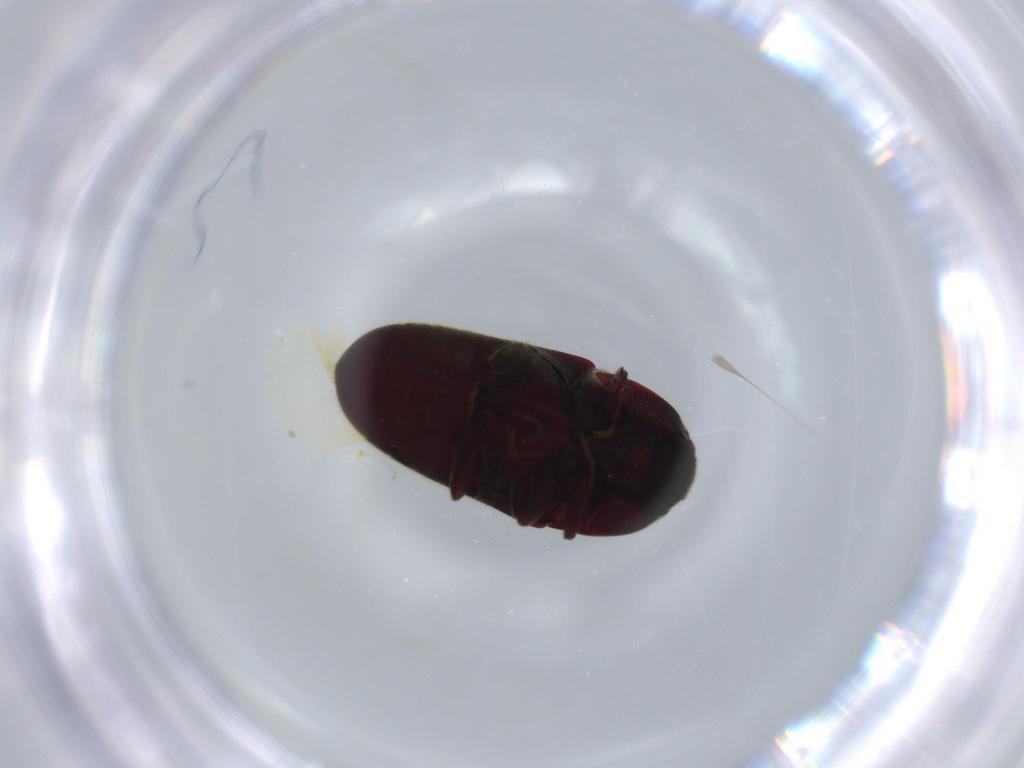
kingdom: Animalia
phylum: Arthropoda
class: Insecta
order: Coleoptera
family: Throscidae
